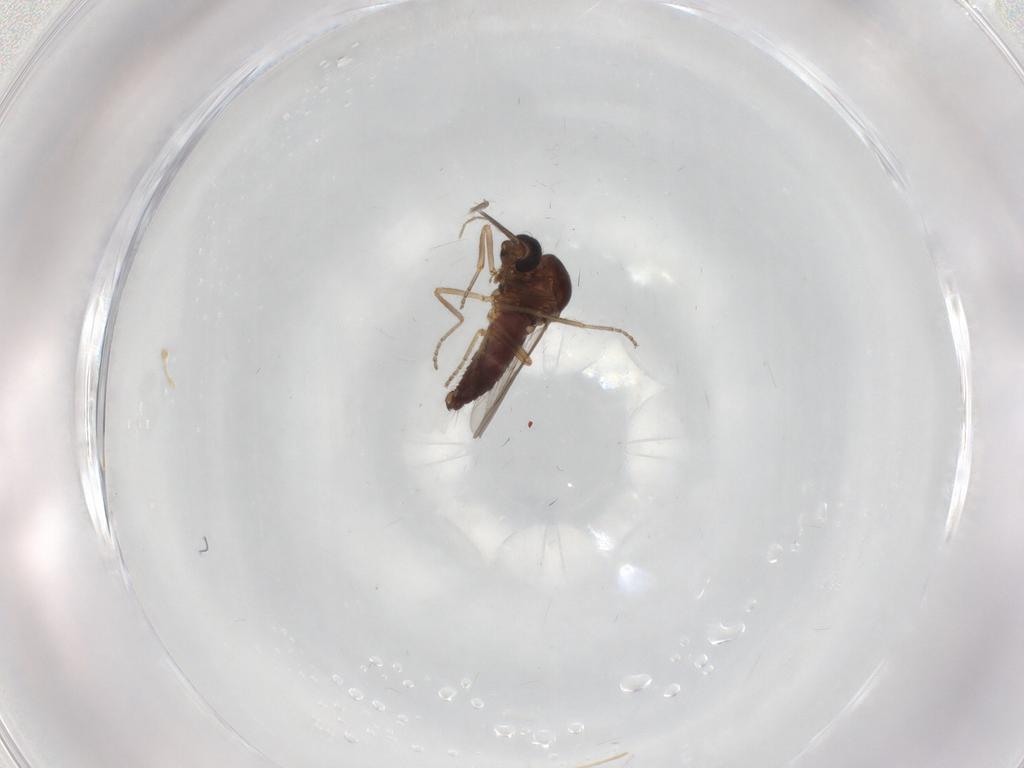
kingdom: Animalia
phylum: Arthropoda
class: Insecta
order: Diptera
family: Ceratopogonidae
